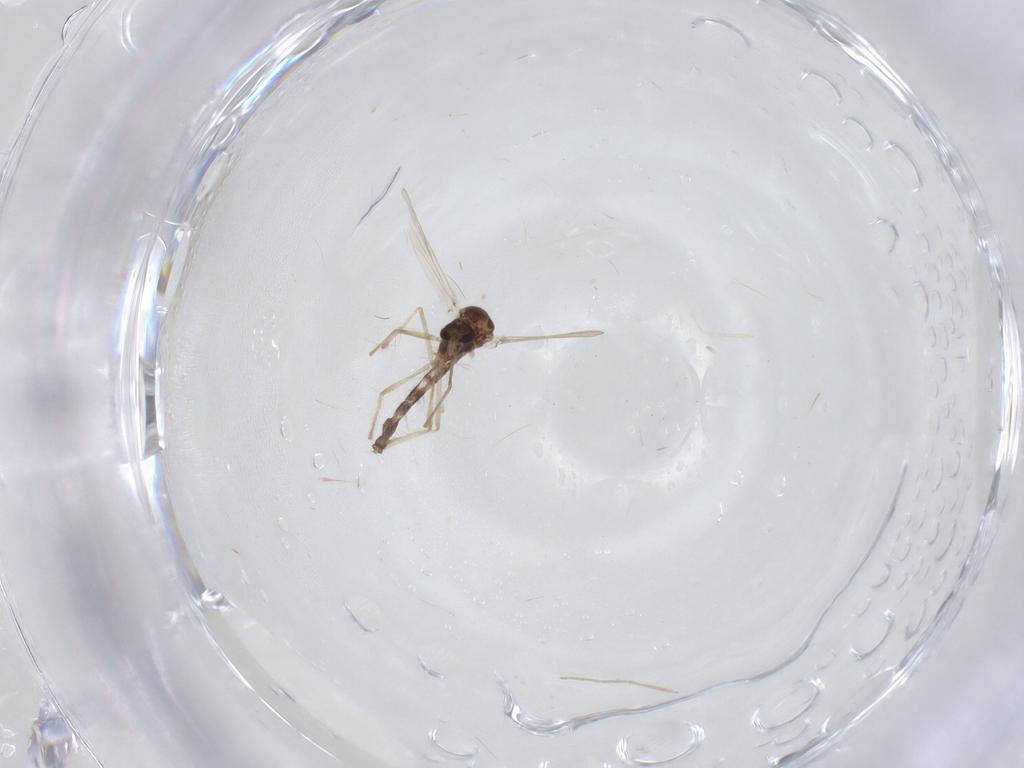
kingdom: Animalia
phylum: Arthropoda
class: Insecta
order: Diptera
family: Chironomidae
